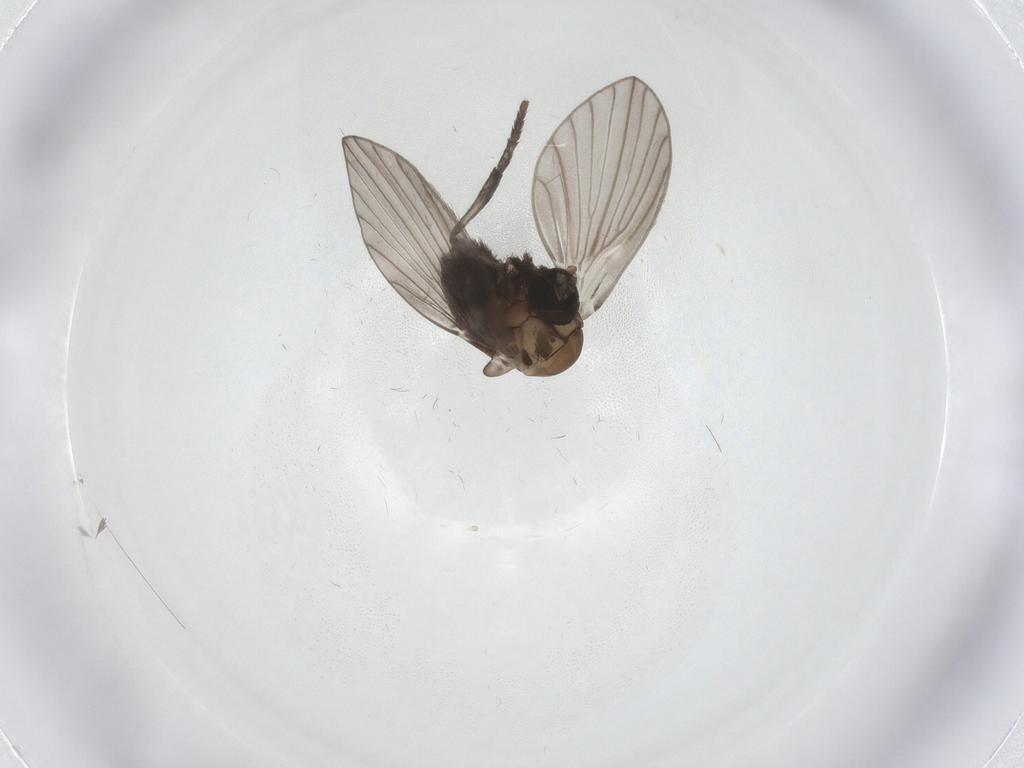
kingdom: Animalia
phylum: Arthropoda
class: Insecta
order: Diptera
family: Psychodidae
